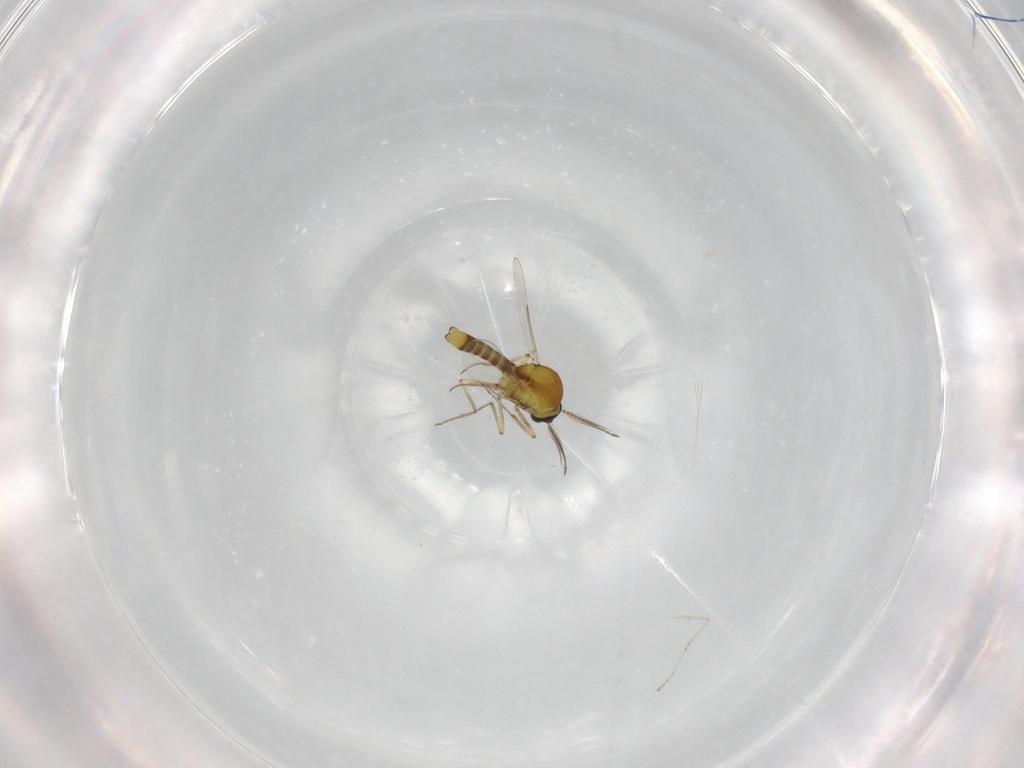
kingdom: Animalia
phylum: Arthropoda
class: Insecta
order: Diptera
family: Ceratopogonidae
